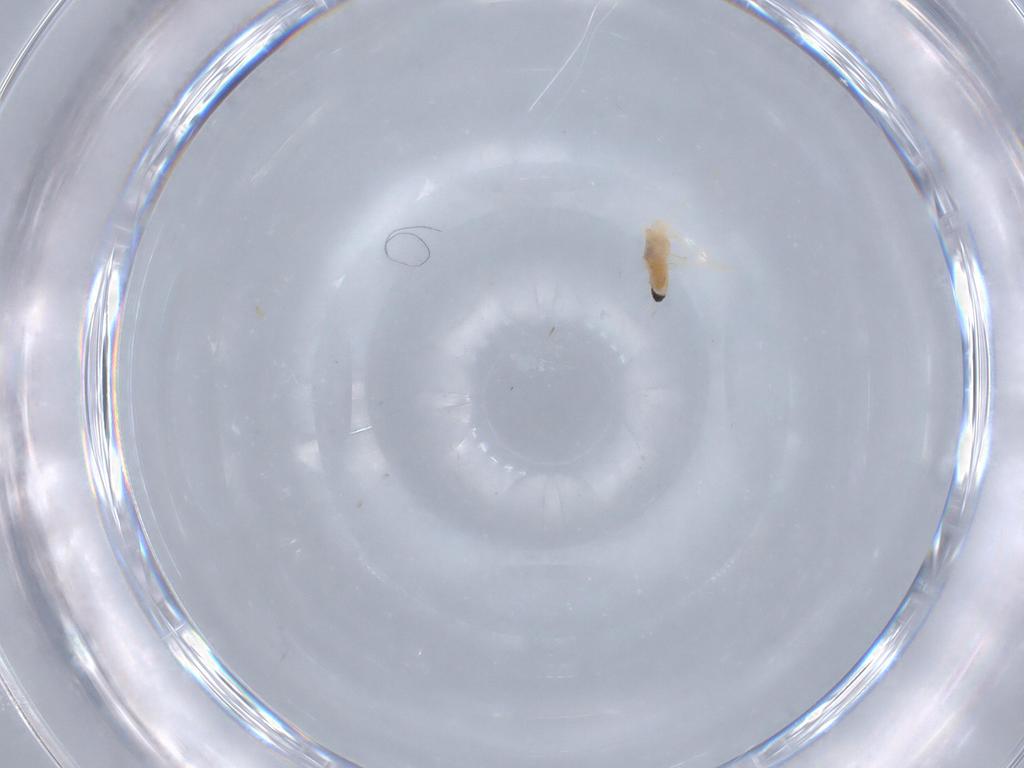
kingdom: Animalia
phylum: Arthropoda
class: Insecta
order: Diptera
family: Cecidomyiidae
